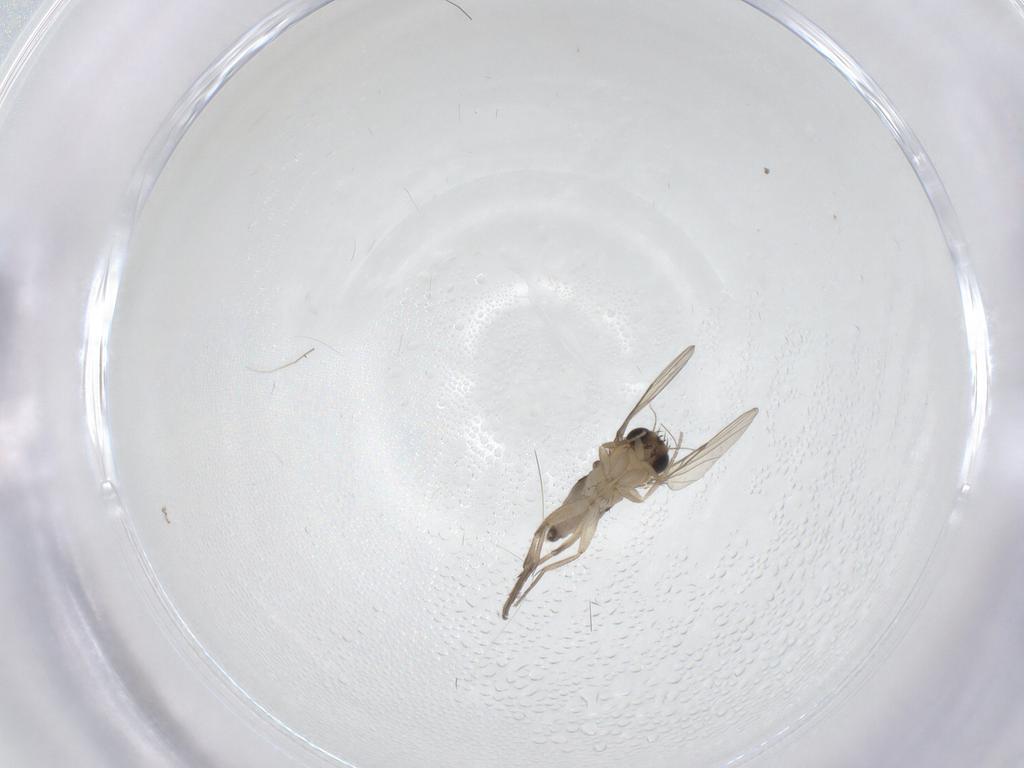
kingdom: Animalia
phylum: Arthropoda
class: Insecta
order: Diptera
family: Phoridae
